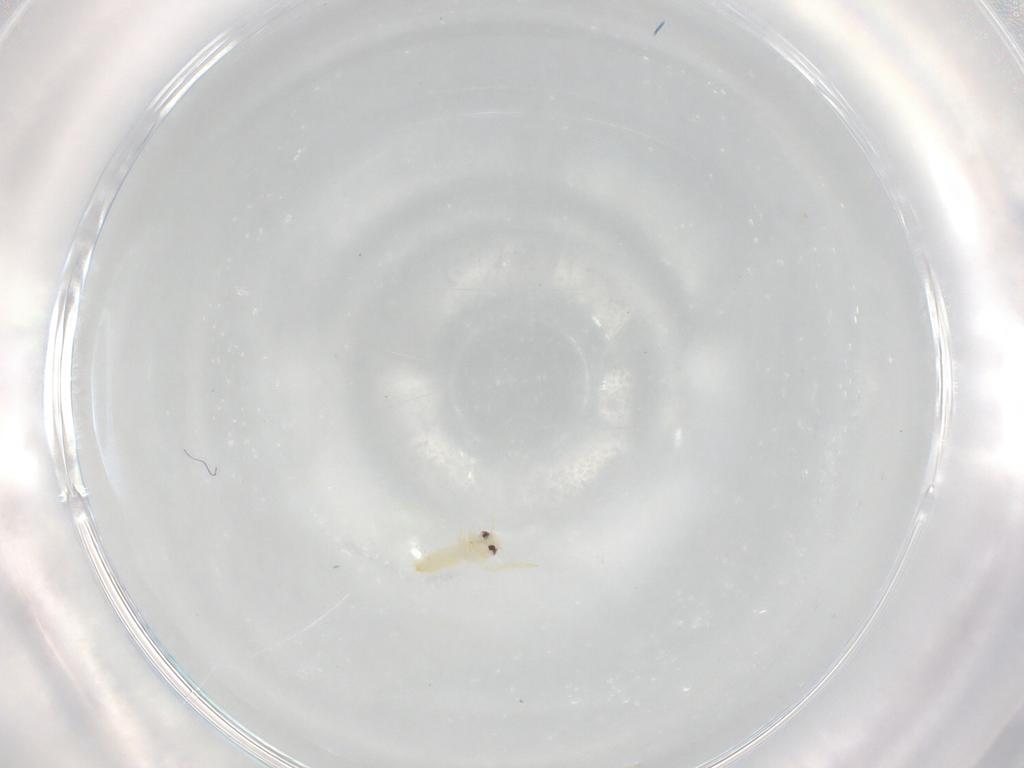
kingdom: Animalia
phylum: Arthropoda
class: Insecta
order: Hemiptera
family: Aleyrodidae
